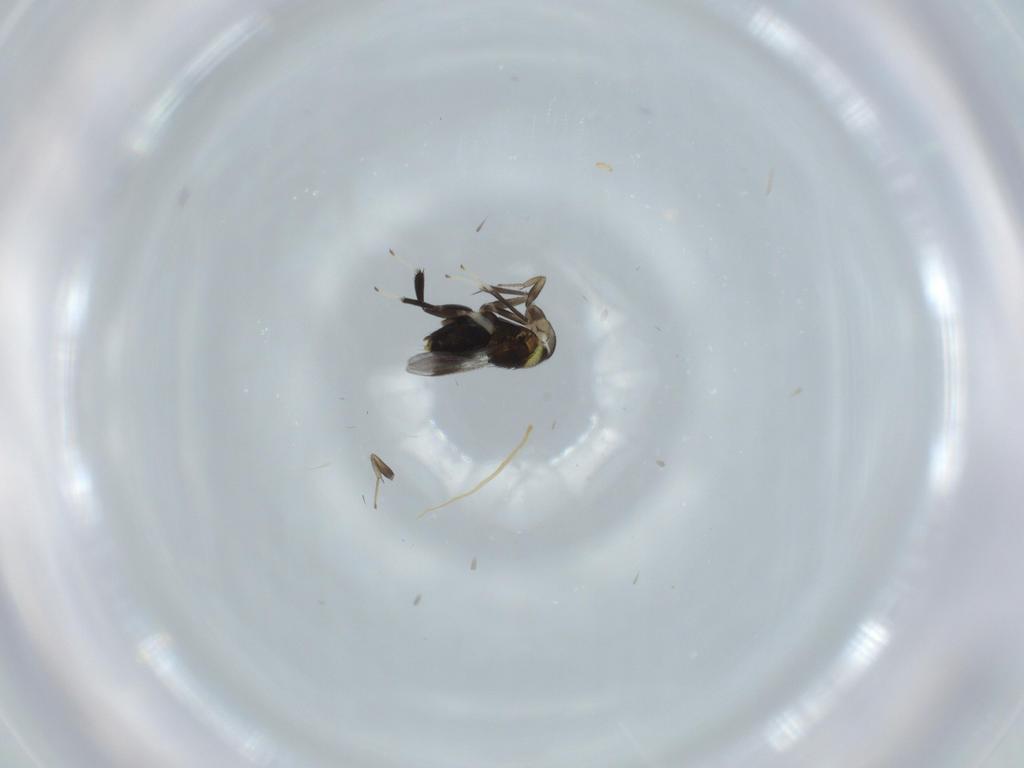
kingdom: Animalia
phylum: Arthropoda
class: Insecta
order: Hymenoptera
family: Aphelinidae
